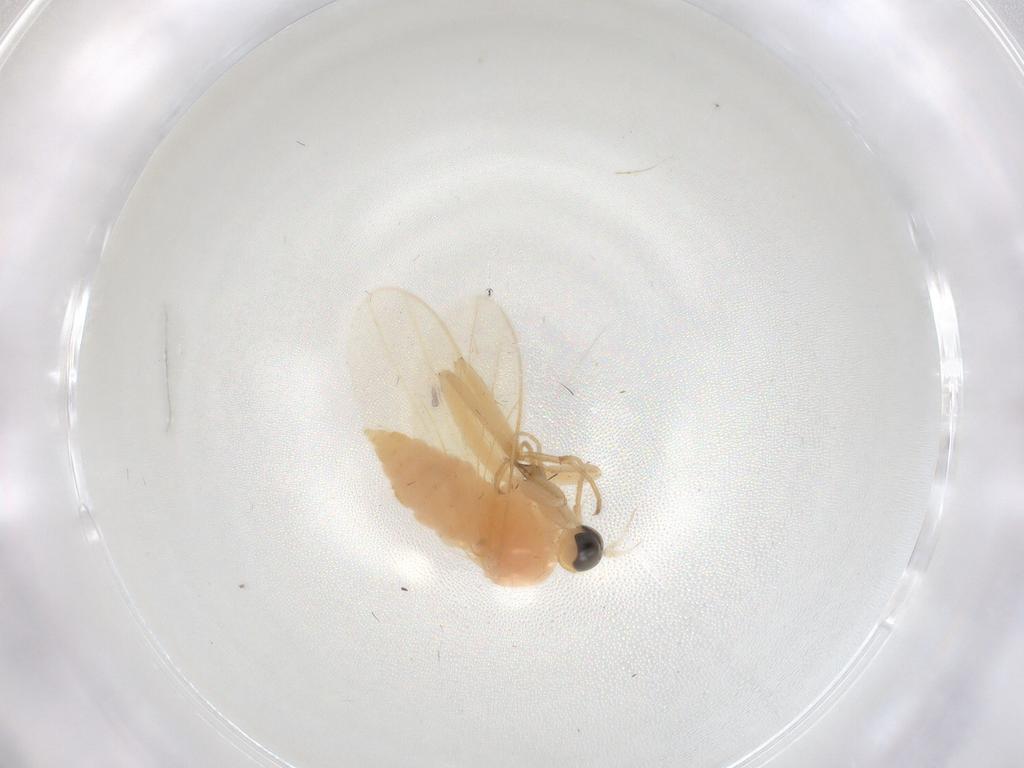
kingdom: Animalia
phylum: Arthropoda
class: Insecta
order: Diptera
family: Hybotidae
